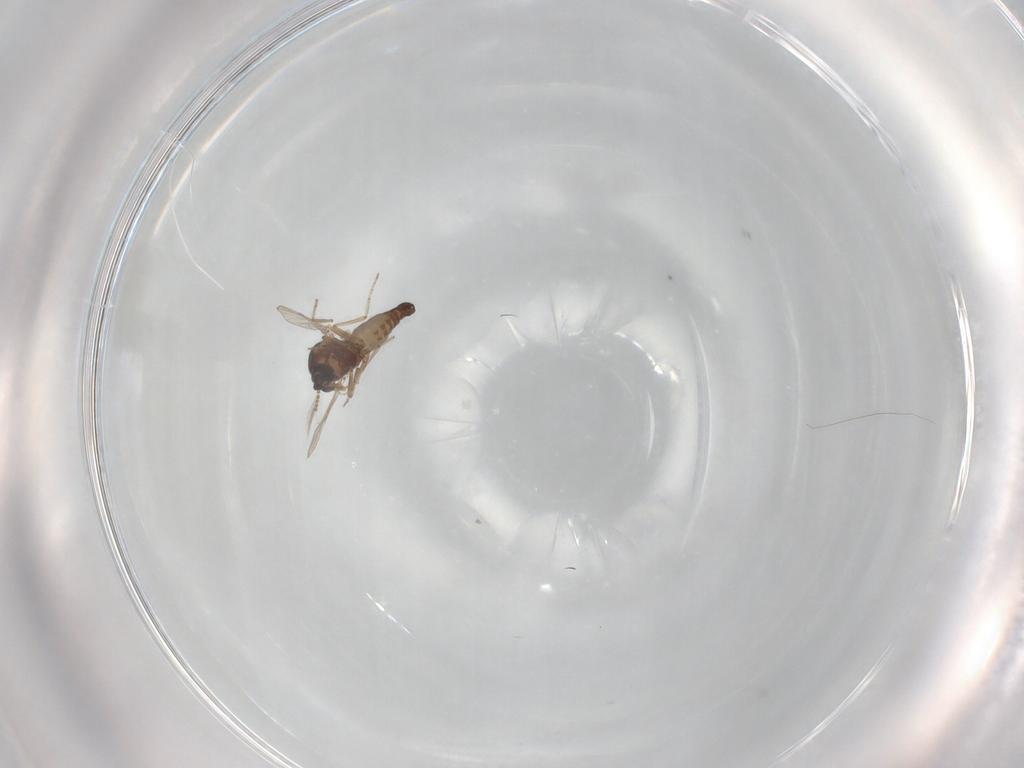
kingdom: Animalia
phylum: Arthropoda
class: Insecta
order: Diptera
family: Ceratopogonidae
